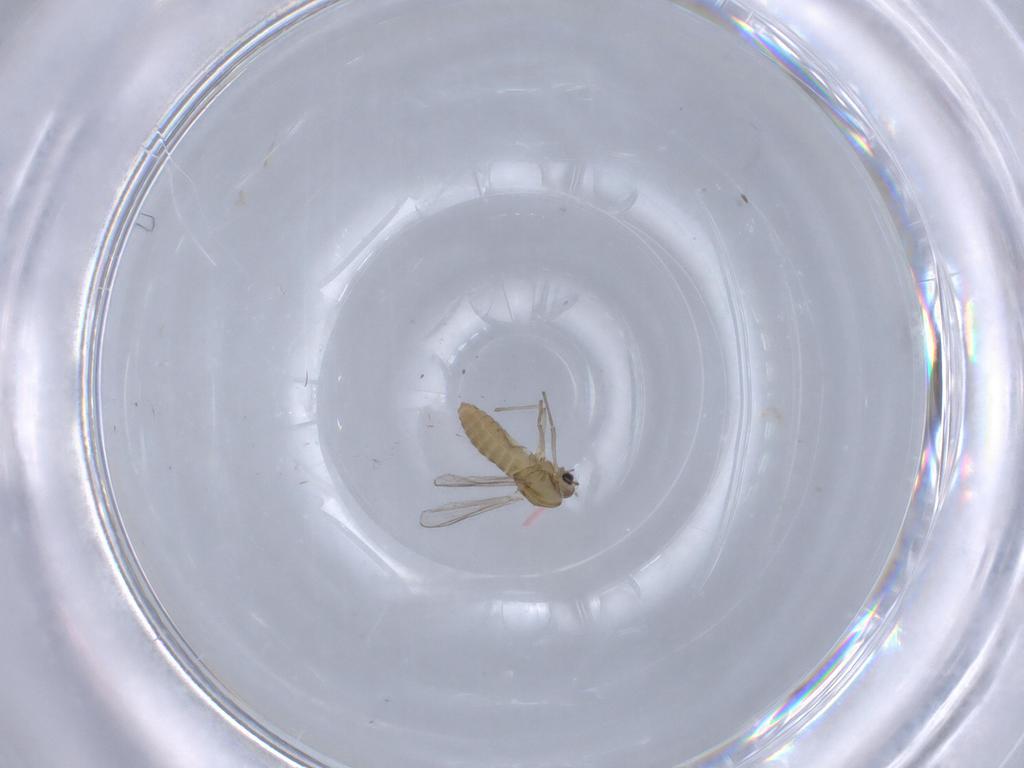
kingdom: Animalia
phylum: Arthropoda
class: Insecta
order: Diptera
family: Chironomidae
